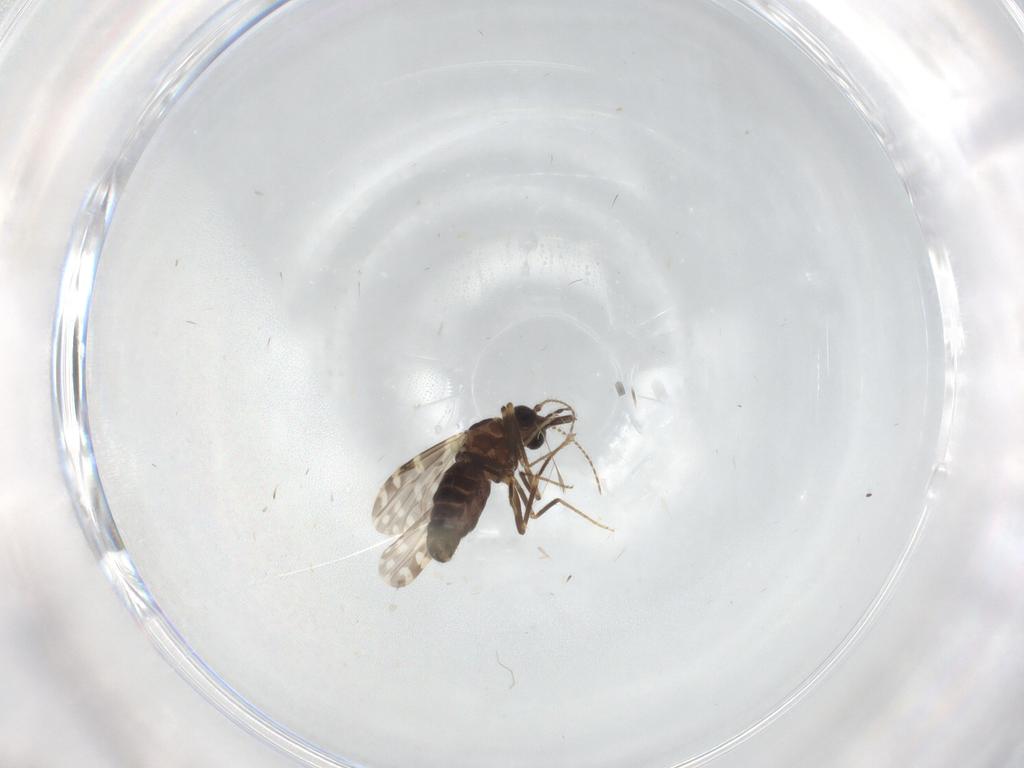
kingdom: Animalia
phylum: Arthropoda
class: Insecta
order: Diptera
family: Ceratopogonidae
